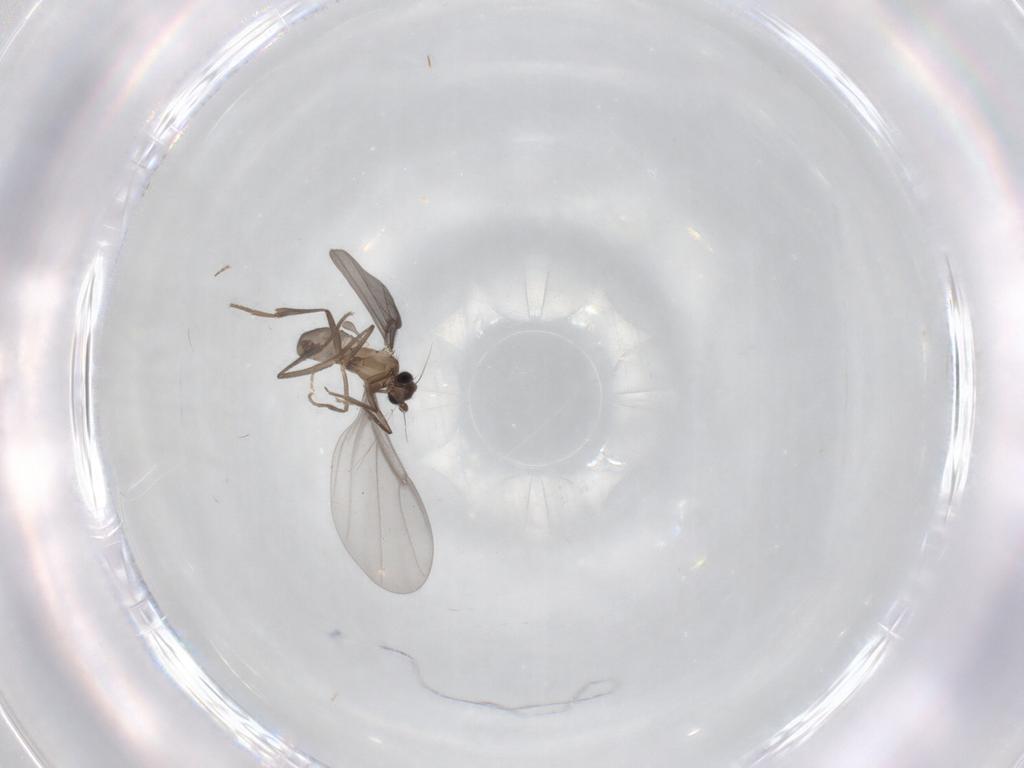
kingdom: Animalia
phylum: Arthropoda
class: Insecta
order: Diptera
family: Phoridae
